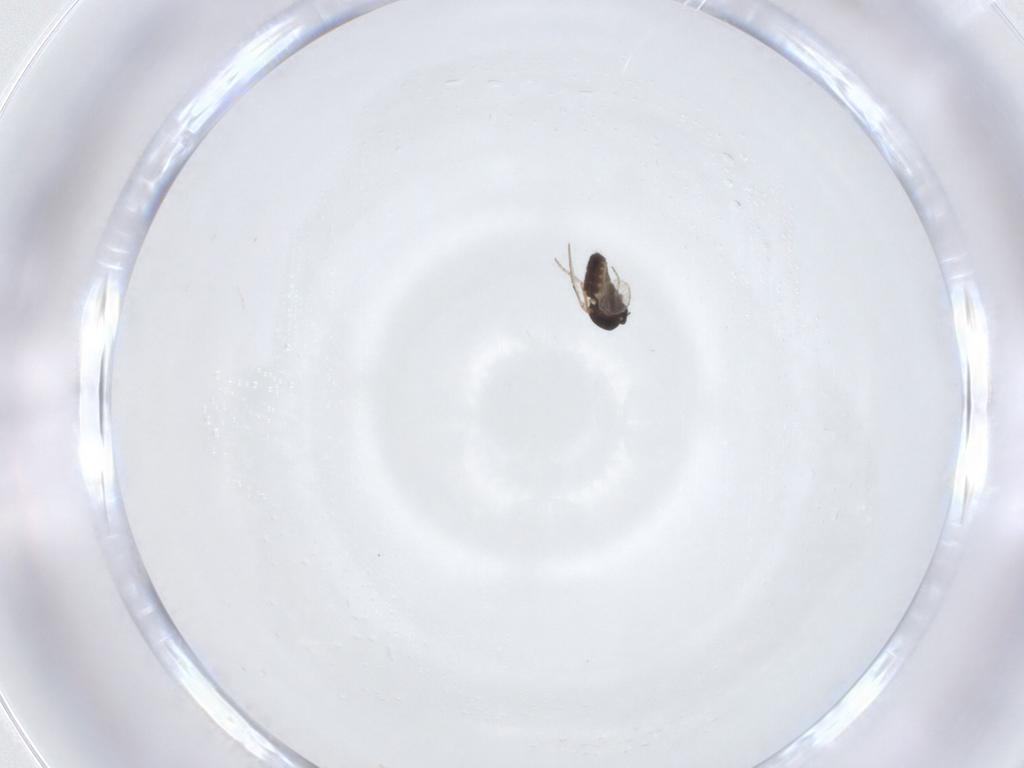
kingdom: Animalia
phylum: Arthropoda
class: Insecta
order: Diptera
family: Ceratopogonidae
